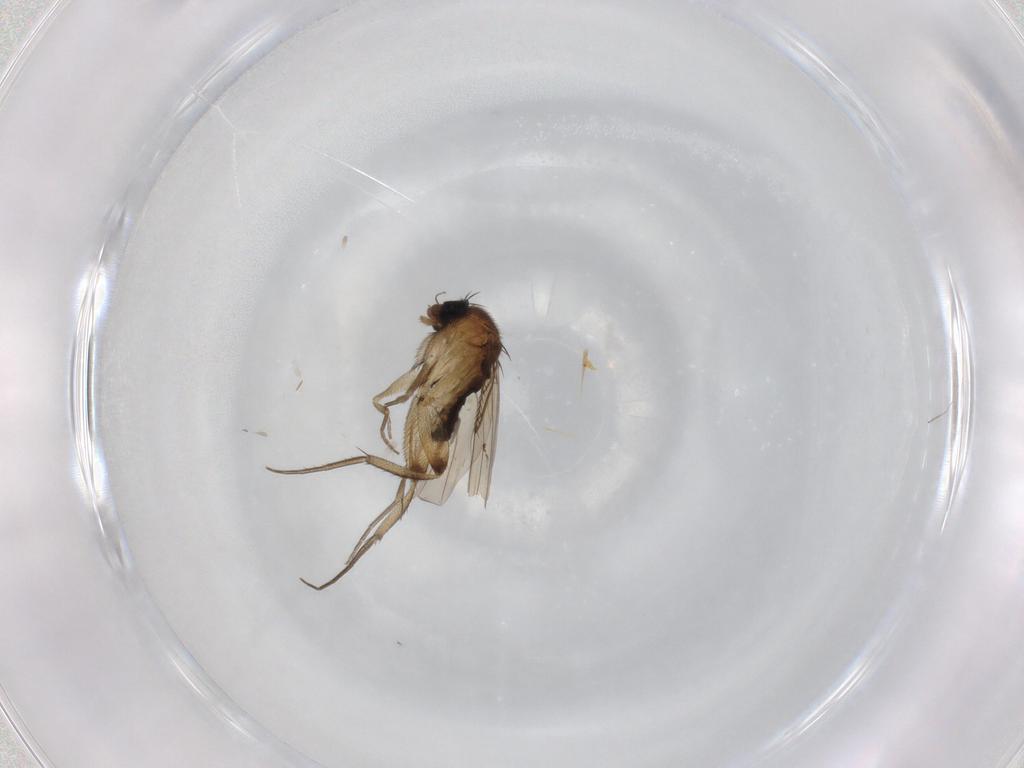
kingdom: Animalia
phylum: Arthropoda
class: Insecta
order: Diptera
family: Phoridae
